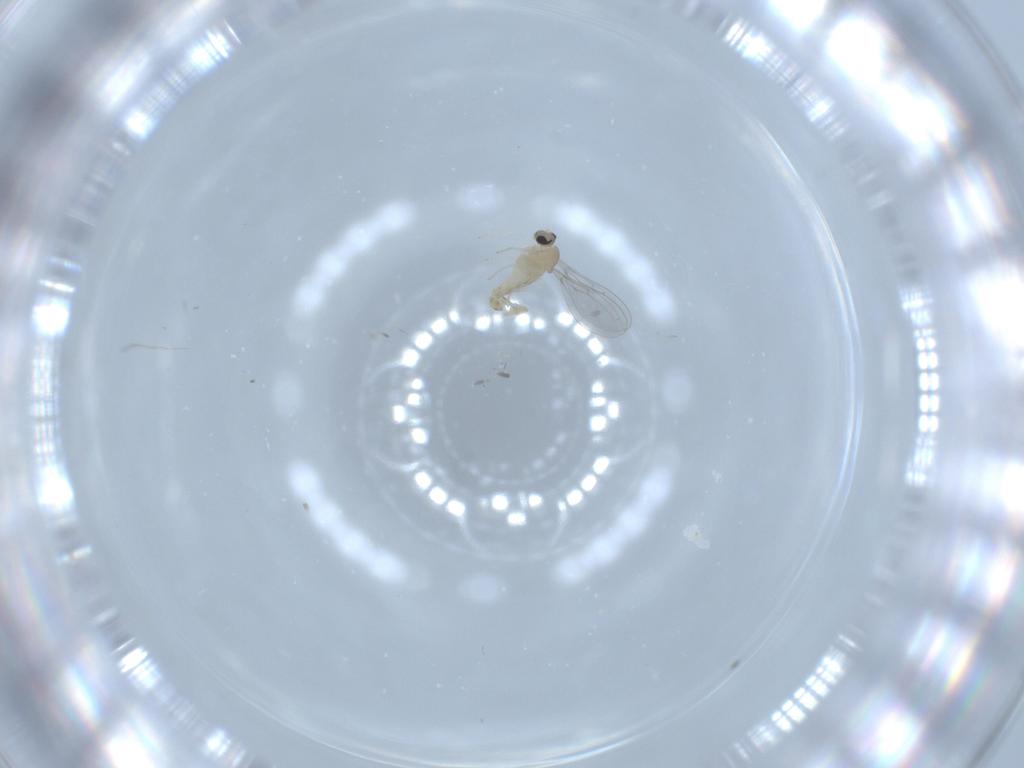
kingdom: Animalia
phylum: Arthropoda
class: Insecta
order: Diptera
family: Cecidomyiidae
